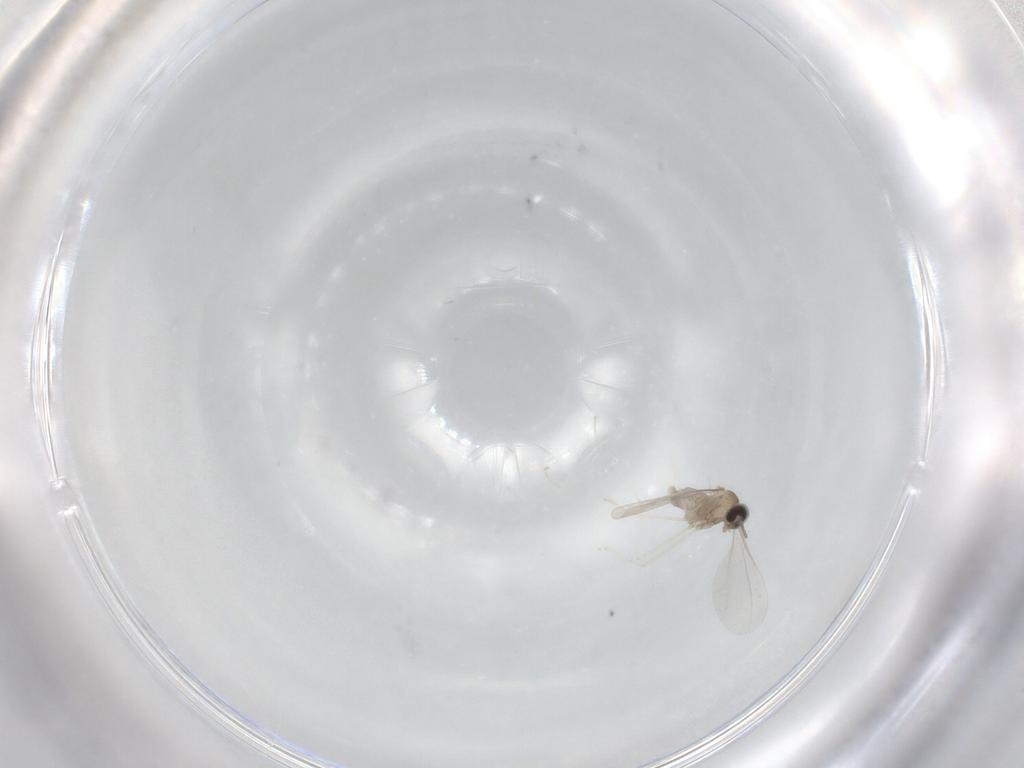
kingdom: Animalia
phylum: Arthropoda
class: Insecta
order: Diptera
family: Cecidomyiidae
